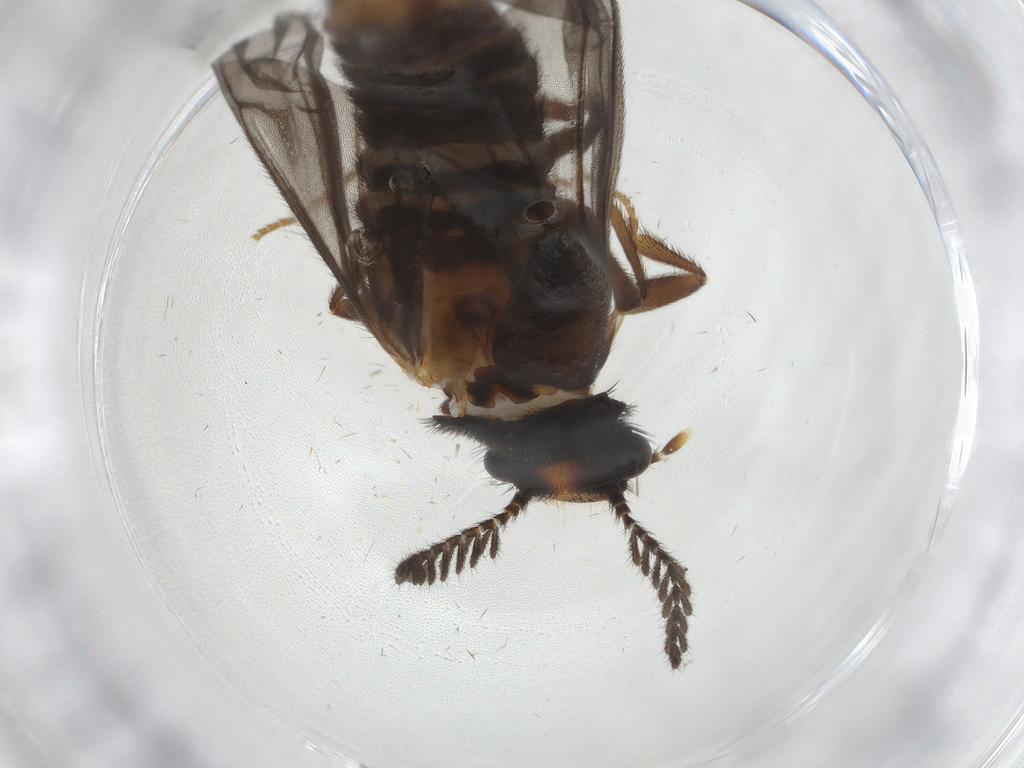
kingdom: Animalia
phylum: Arthropoda
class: Insecta
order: Coleoptera
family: Phengodidae
